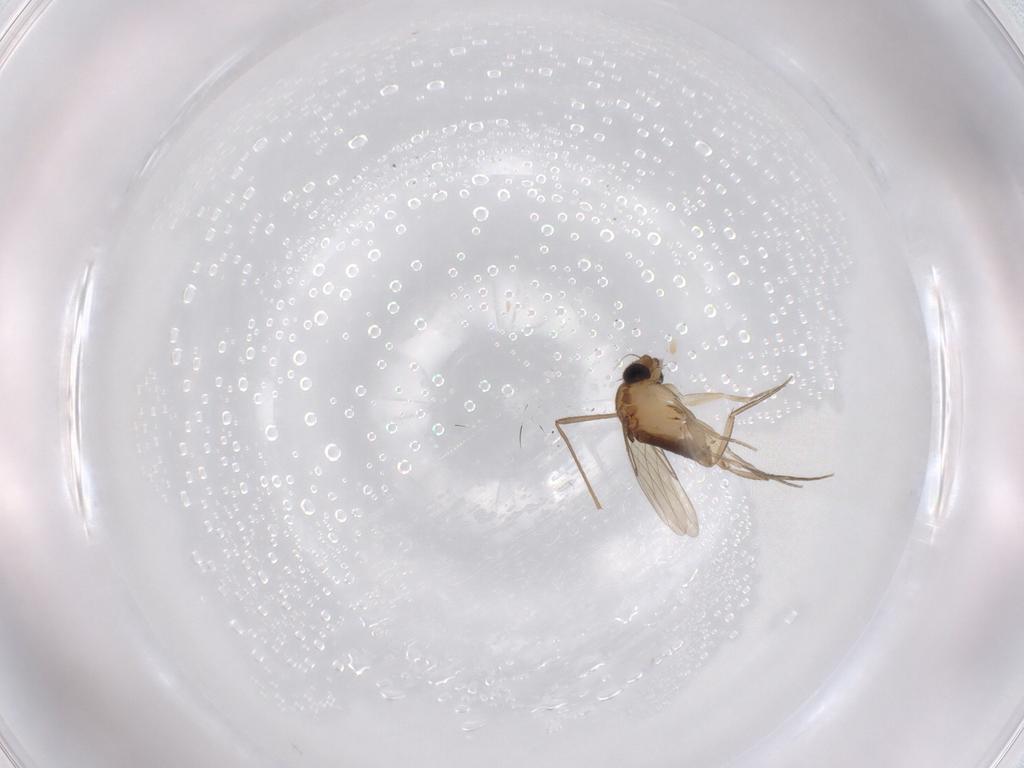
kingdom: Animalia
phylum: Arthropoda
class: Insecta
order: Diptera
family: Phoridae
